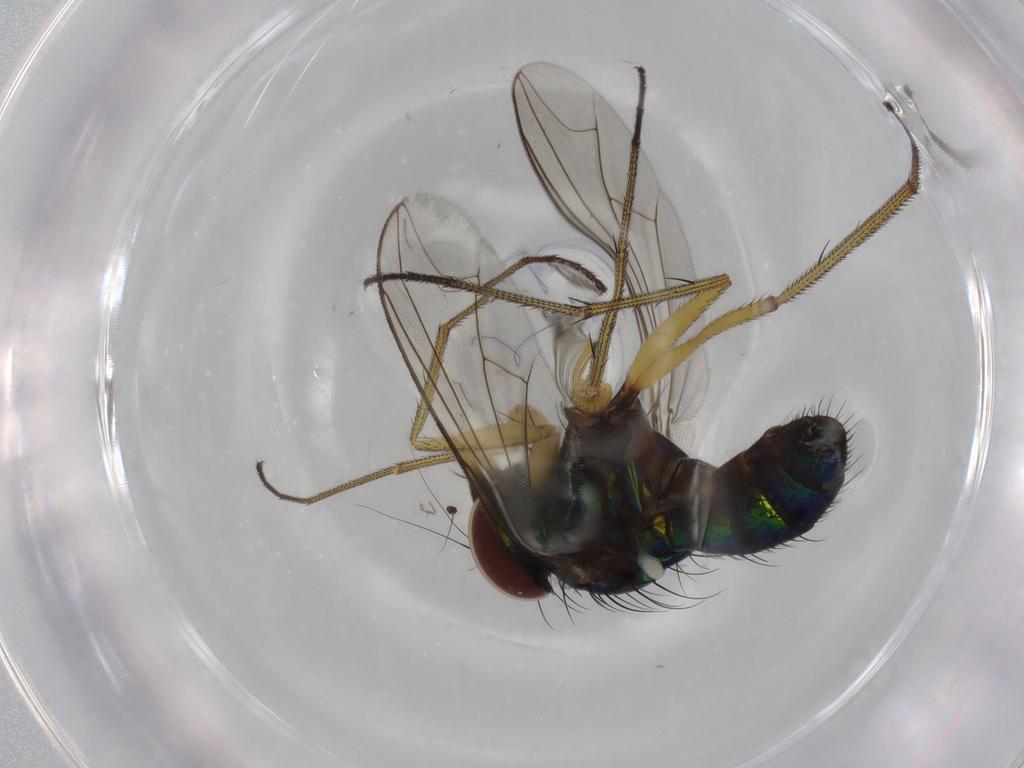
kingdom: Animalia
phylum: Arthropoda
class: Insecta
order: Diptera
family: Dolichopodidae
